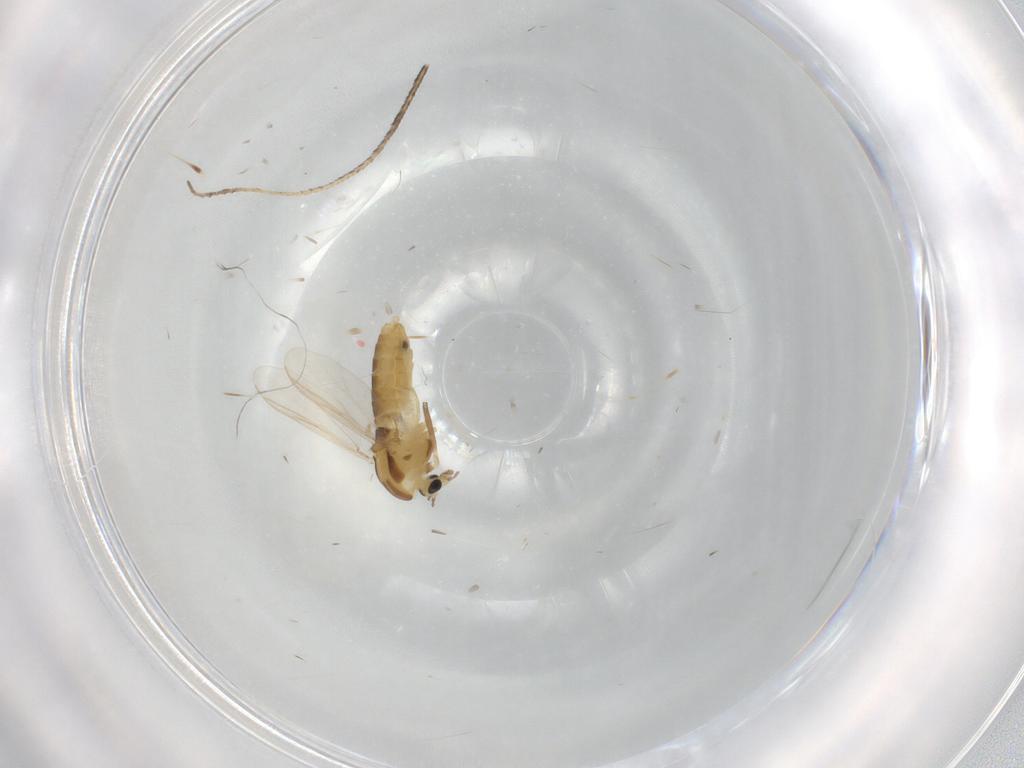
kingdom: Animalia
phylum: Arthropoda
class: Insecta
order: Diptera
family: Chironomidae
